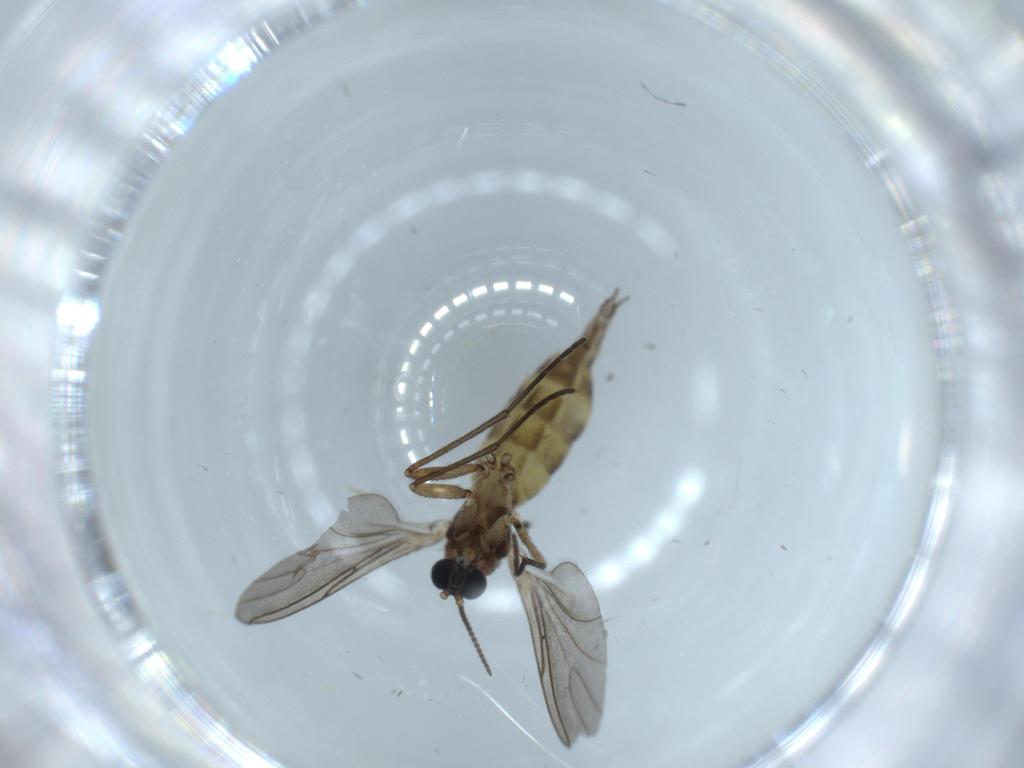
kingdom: Animalia
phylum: Arthropoda
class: Insecta
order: Diptera
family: Sciaridae
